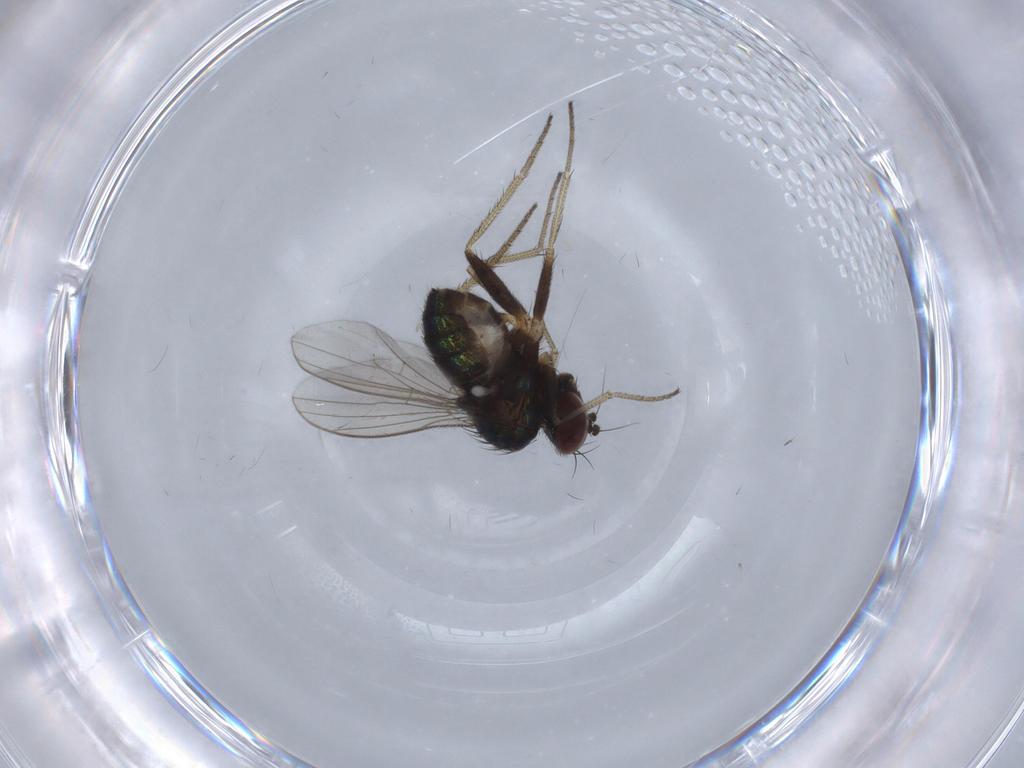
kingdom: Animalia
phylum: Arthropoda
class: Insecta
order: Diptera
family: Dolichopodidae
